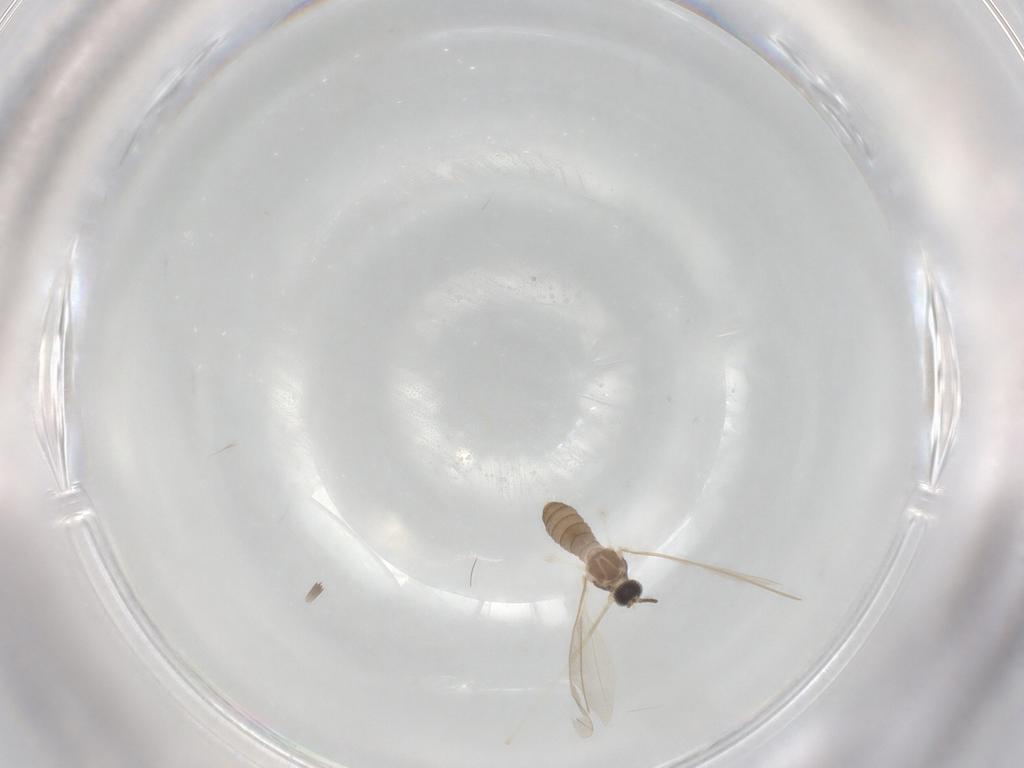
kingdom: Animalia
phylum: Arthropoda
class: Insecta
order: Diptera
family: Cecidomyiidae
